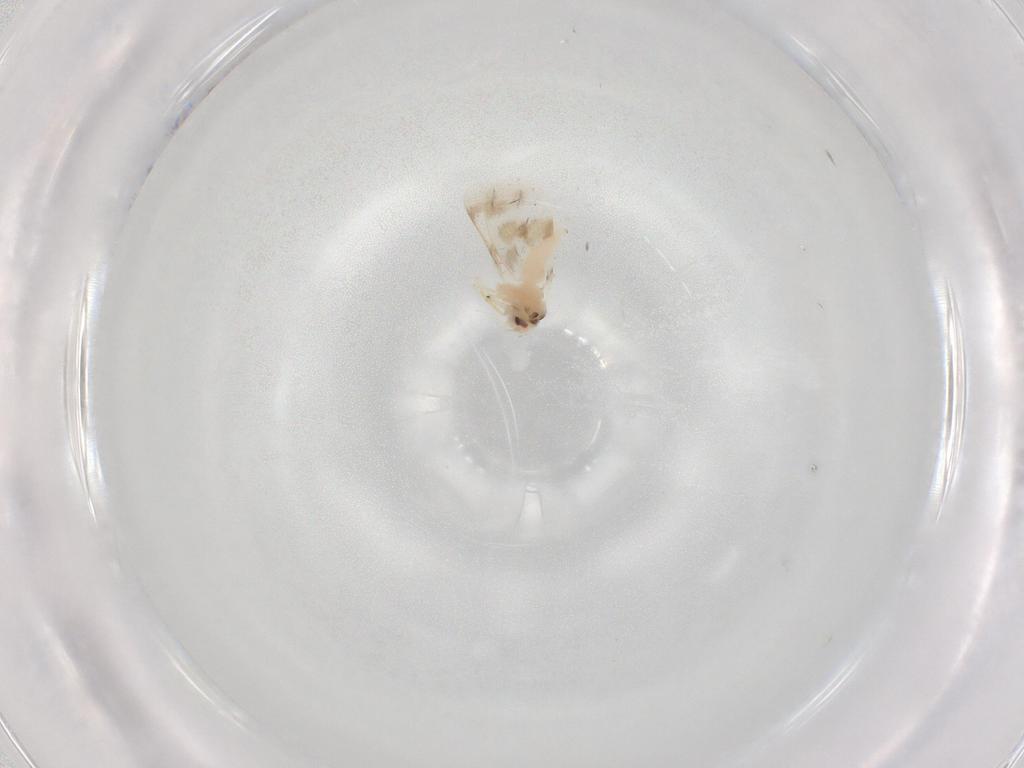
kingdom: Animalia
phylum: Arthropoda
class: Insecta
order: Hemiptera
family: Aleyrodidae
